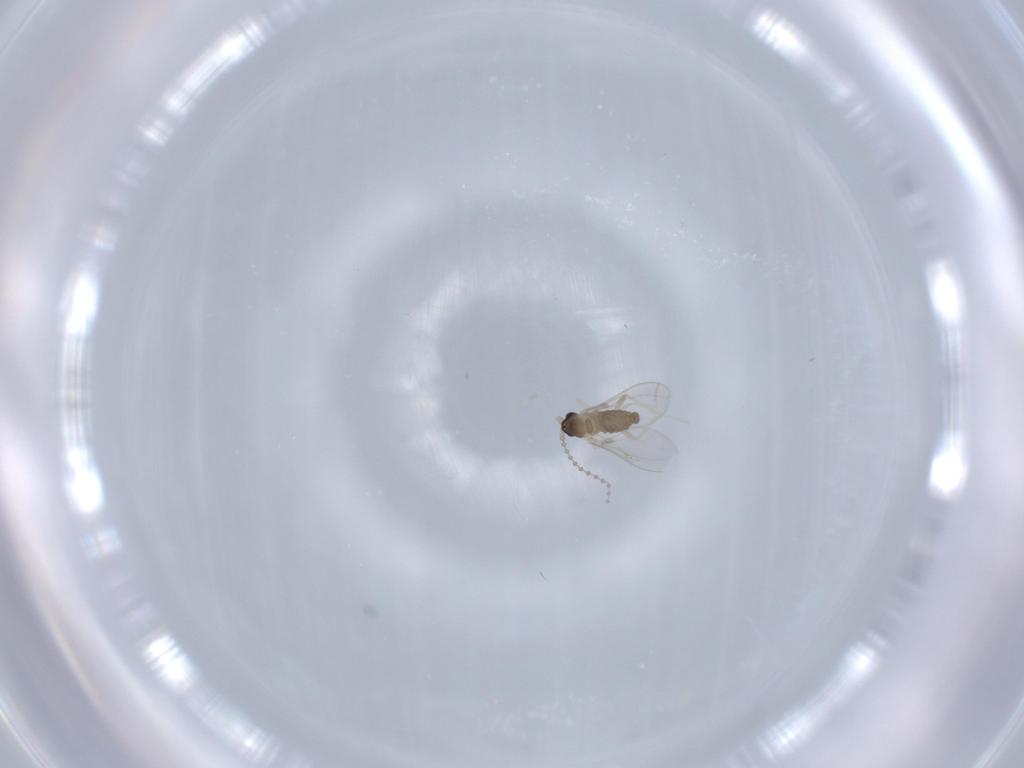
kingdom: Animalia
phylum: Arthropoda
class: Insecta
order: Diptera
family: Cecidomyiidae
